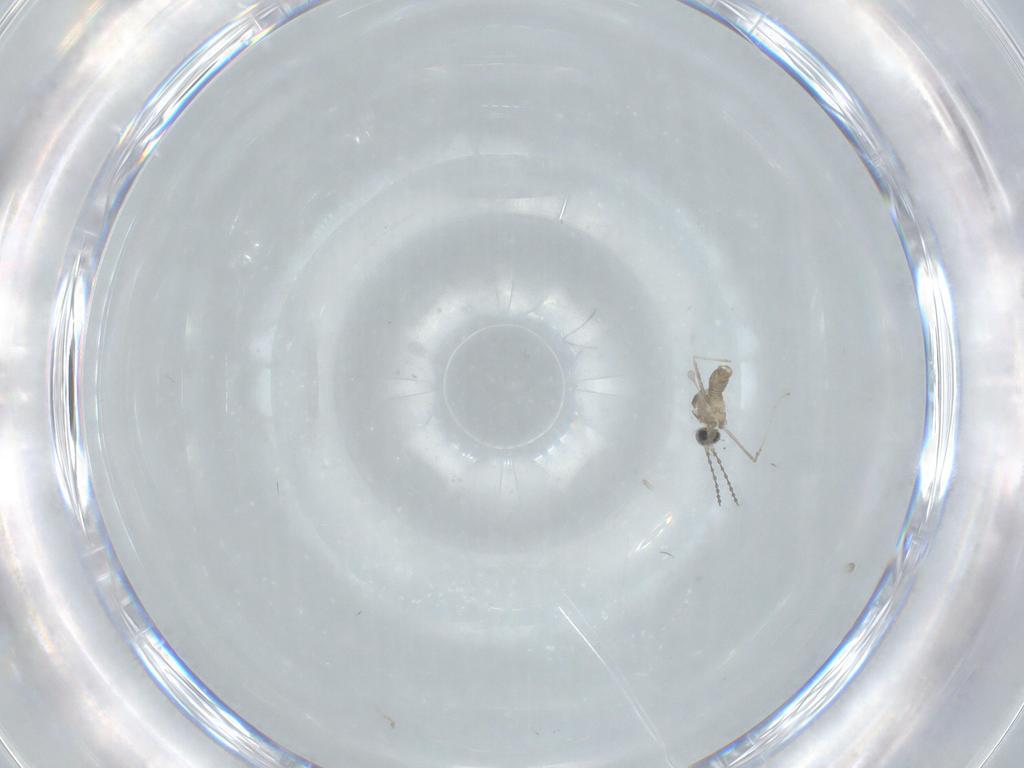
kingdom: Animalia
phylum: Arthropoda
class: Insecta
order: Diptera
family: Cecidomyiidae
